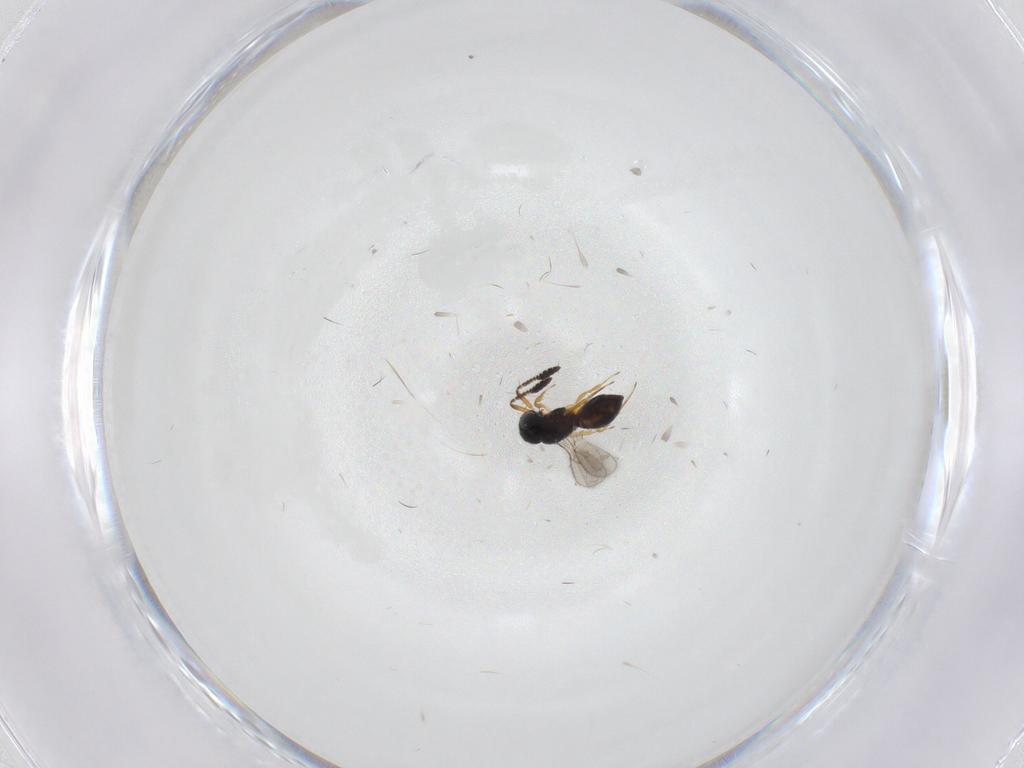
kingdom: Animalia
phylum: Arthropoda
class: Insecta
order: Hymenoptera
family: Scelionidae
